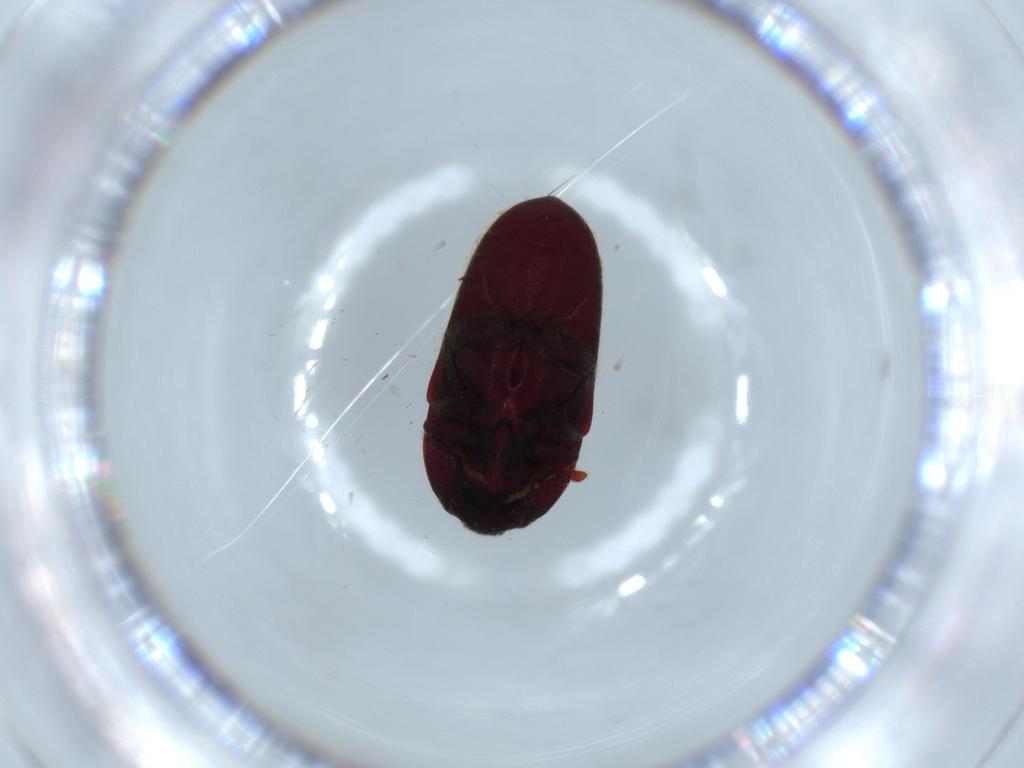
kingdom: Animalia
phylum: Arthropoda
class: Insecta
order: Coleoptera
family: Throscidae
